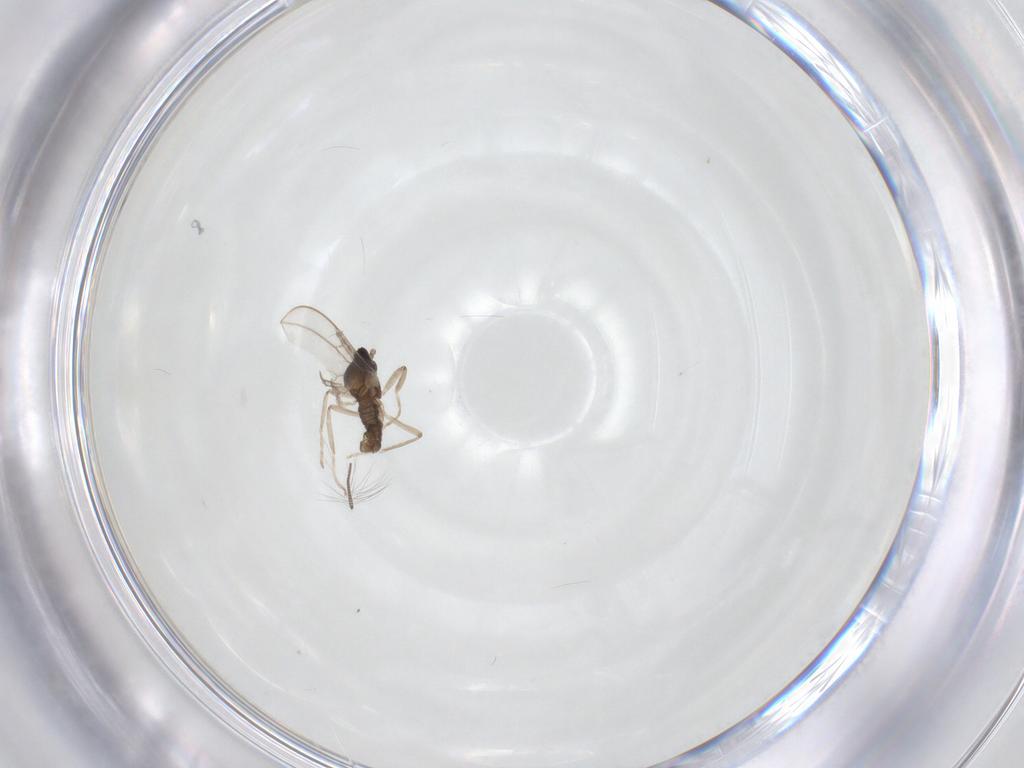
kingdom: Animalia
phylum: Arthropoda
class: Insecta
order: Diptera
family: Cecidomyiidae
